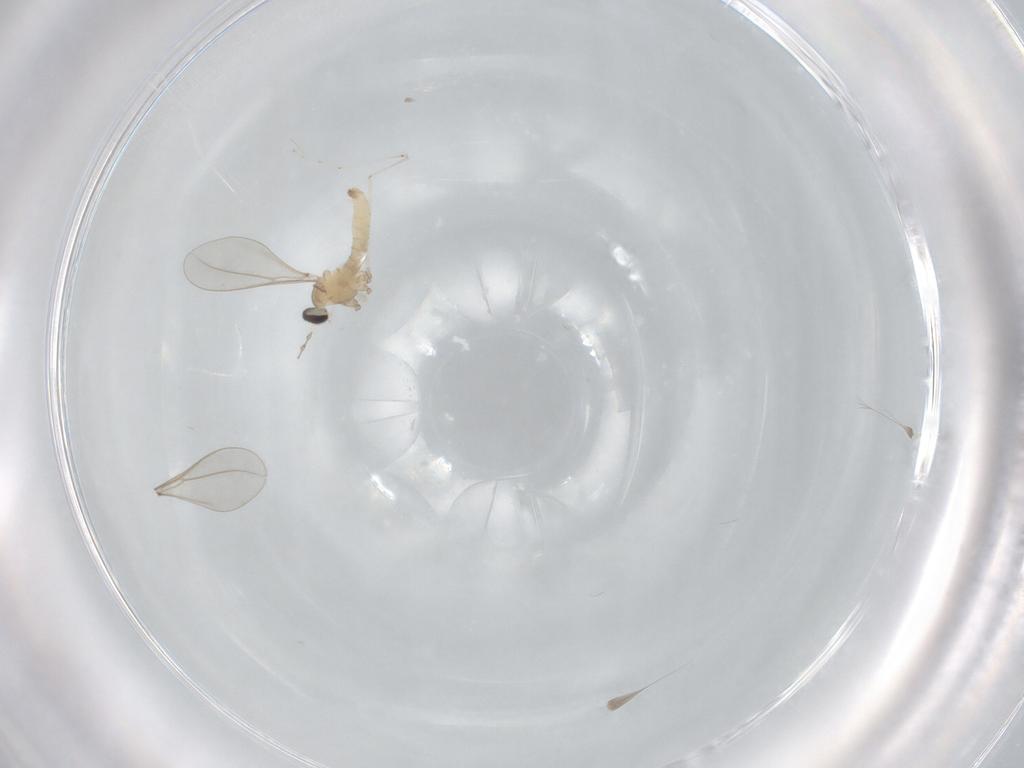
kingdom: Animalia
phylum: Arthropoda
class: Insecta
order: Diptera
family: Cecidomyiidae
